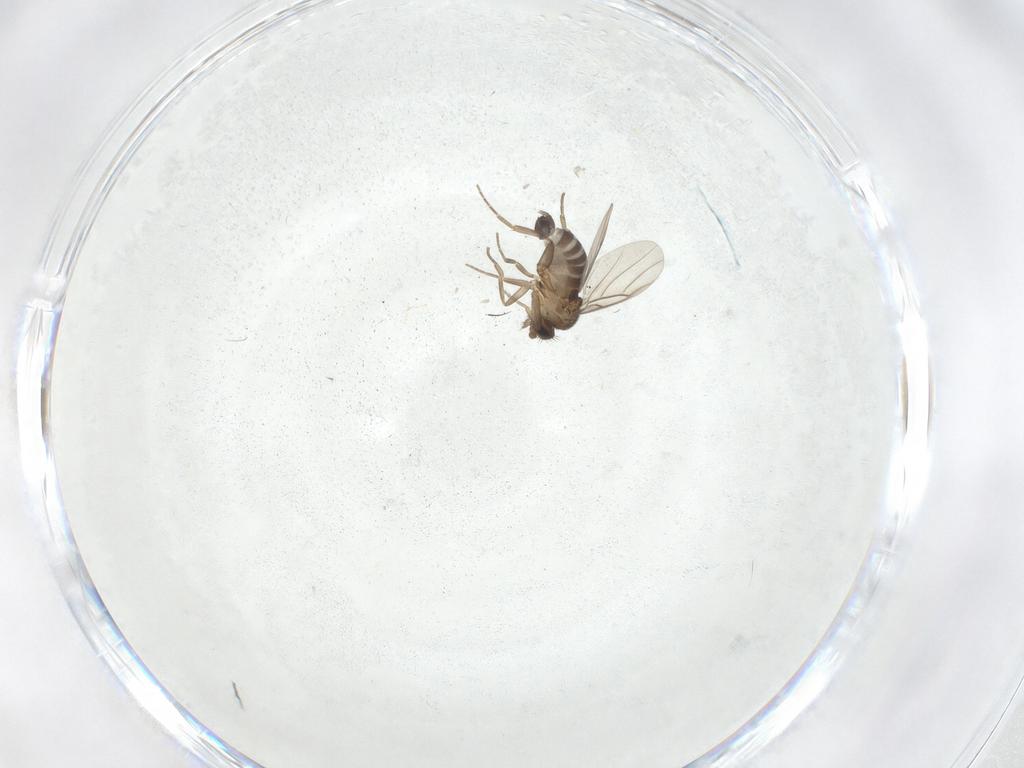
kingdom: Animalia
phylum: Arthropoda
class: Insecta
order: Diptera
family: Phoridae
